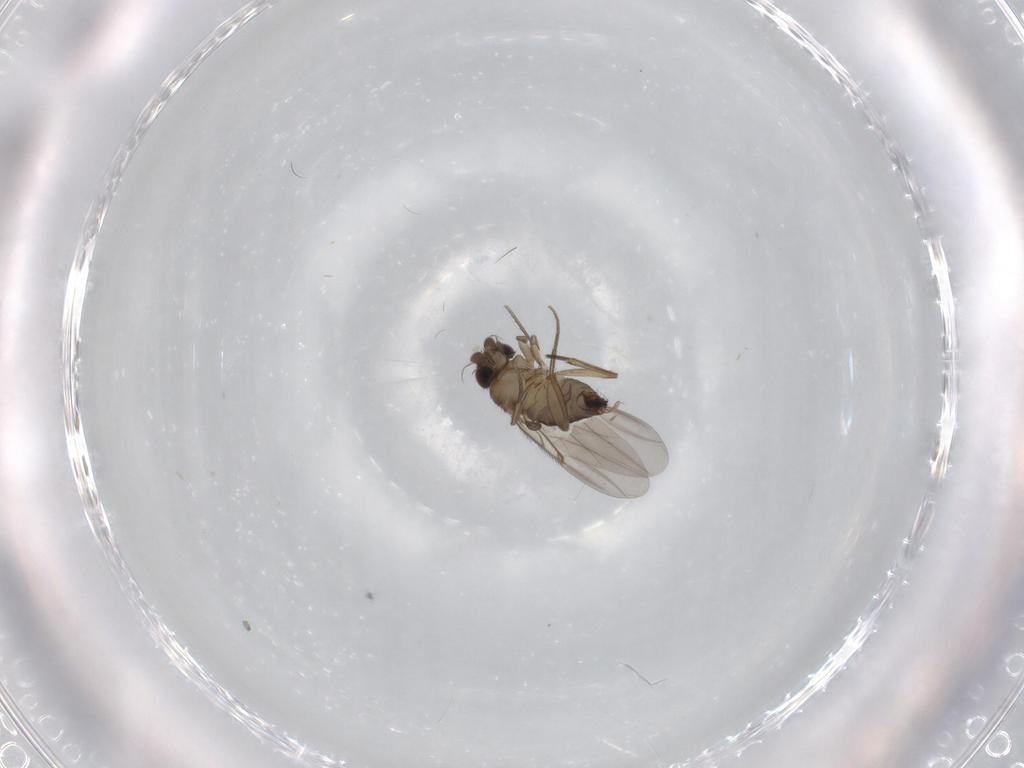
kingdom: Animalia
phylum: Arthropoda
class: Insecta
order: Diptera
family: Phoridae
